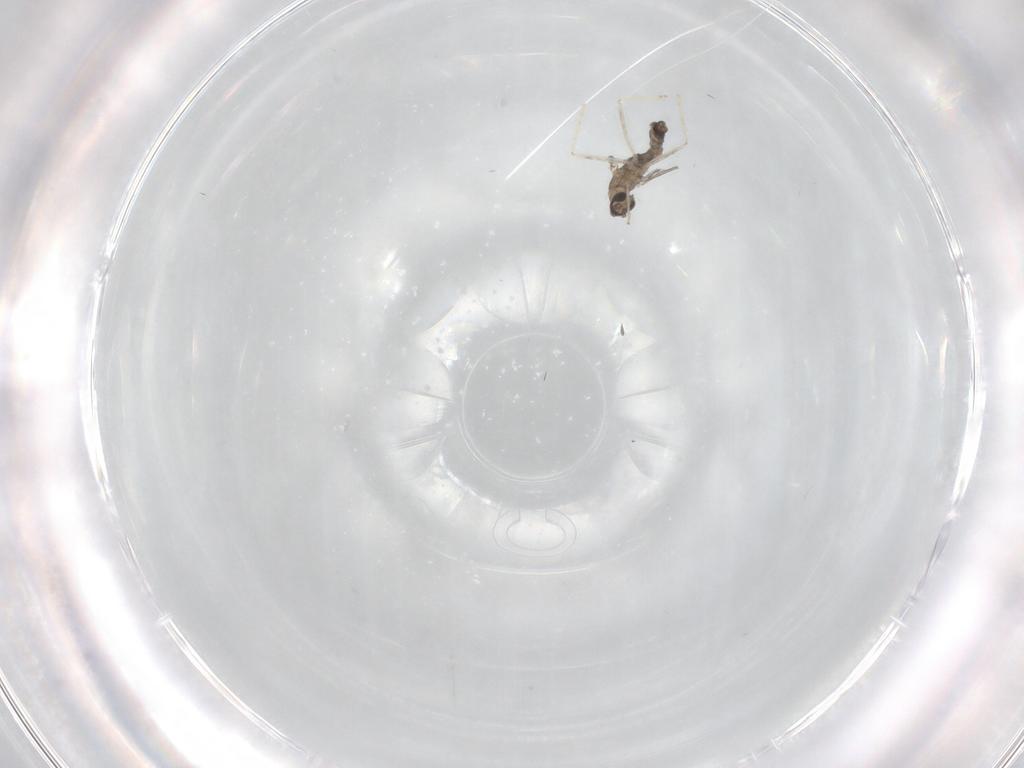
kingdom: Animalia
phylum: Arthropoda
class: Insecta
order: Diptera
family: Cecidomyiidae
